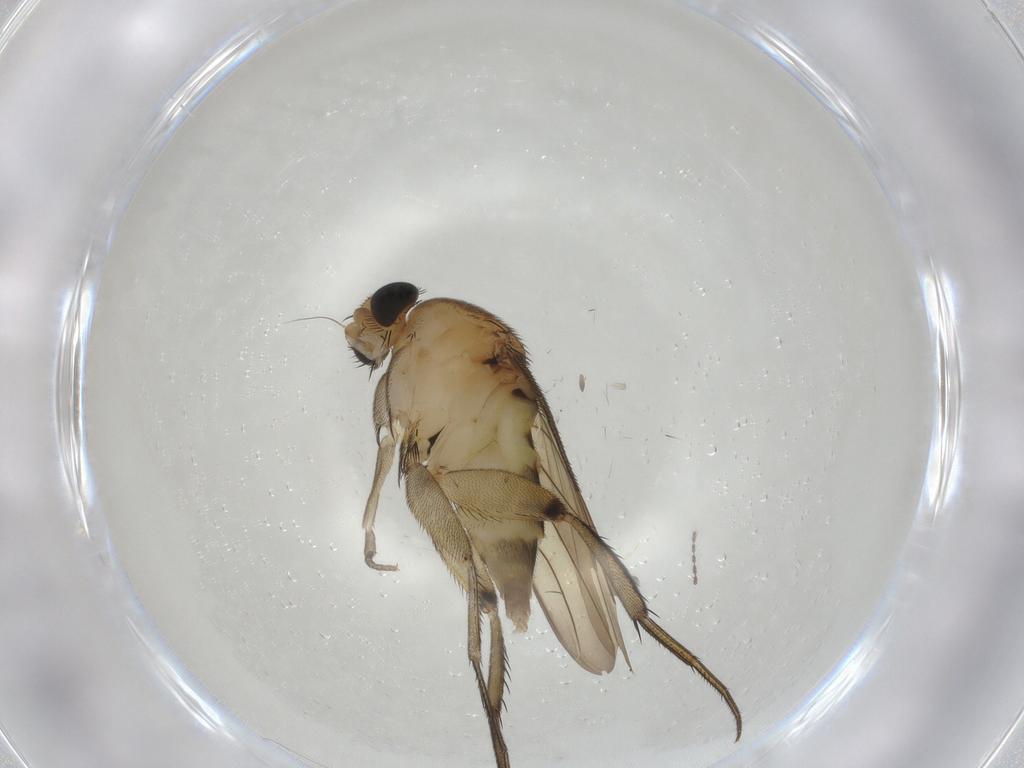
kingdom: Animalia
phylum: Arthropoda
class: Insecta
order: Diptera
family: Phoridae
